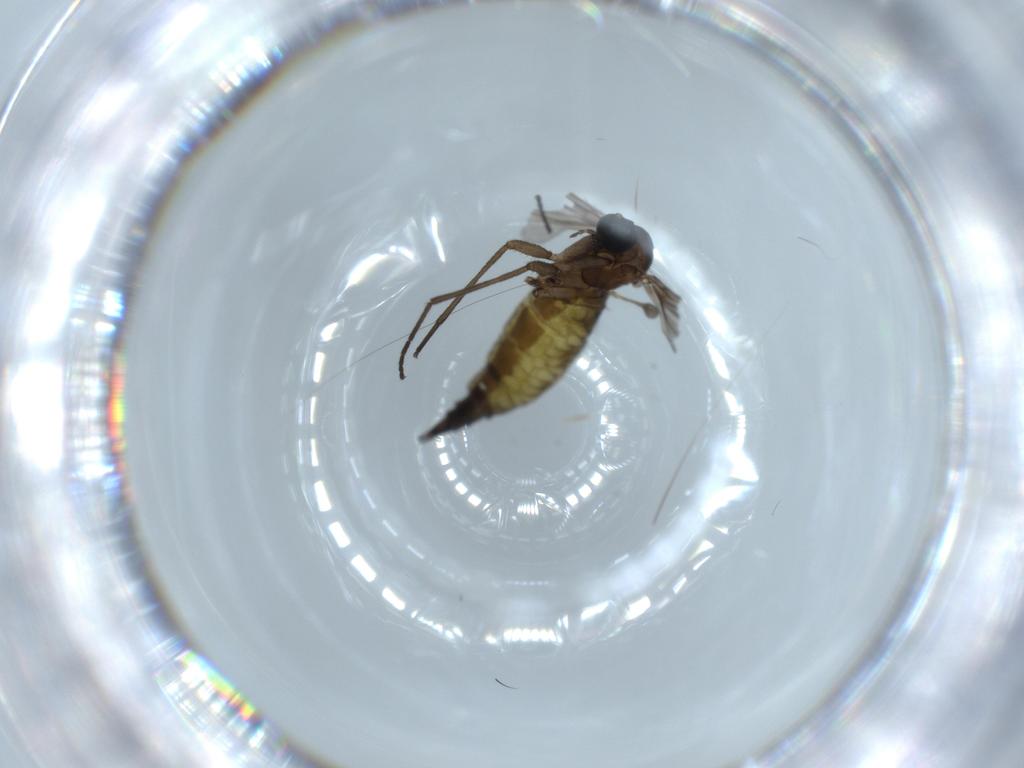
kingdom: Animalia
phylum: Arthropoda
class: Insecta
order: Diptera
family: Sciaridae
